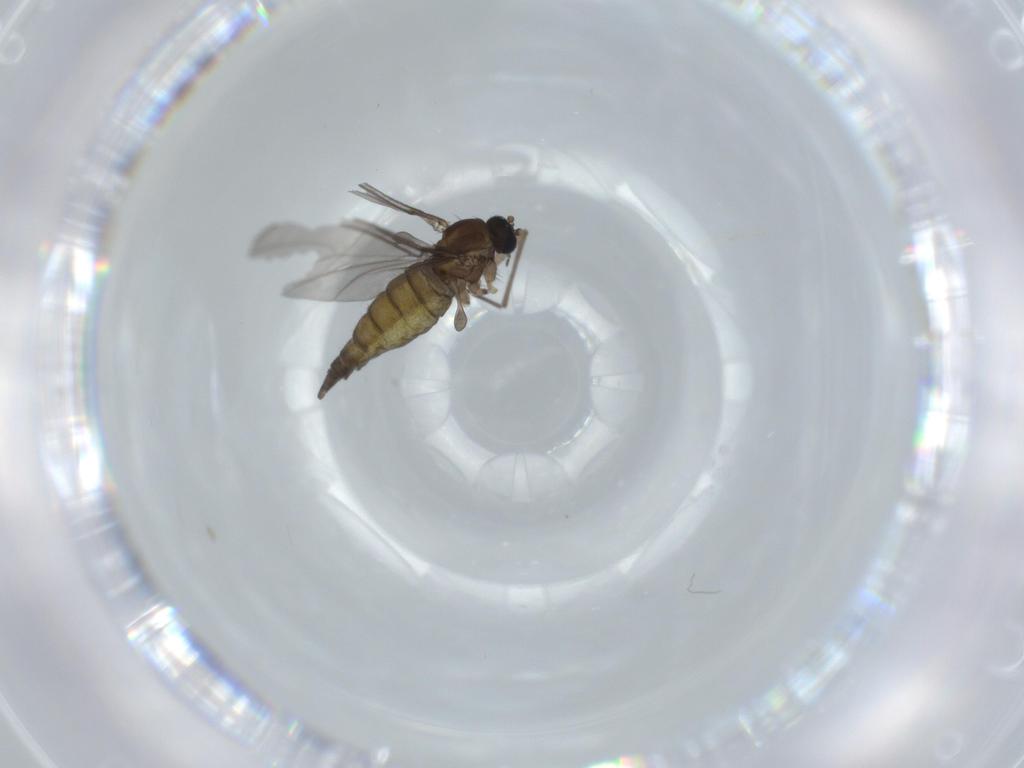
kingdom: Animalia
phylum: Arthropoda
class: Insecta
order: Diptera
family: Sciaridae
